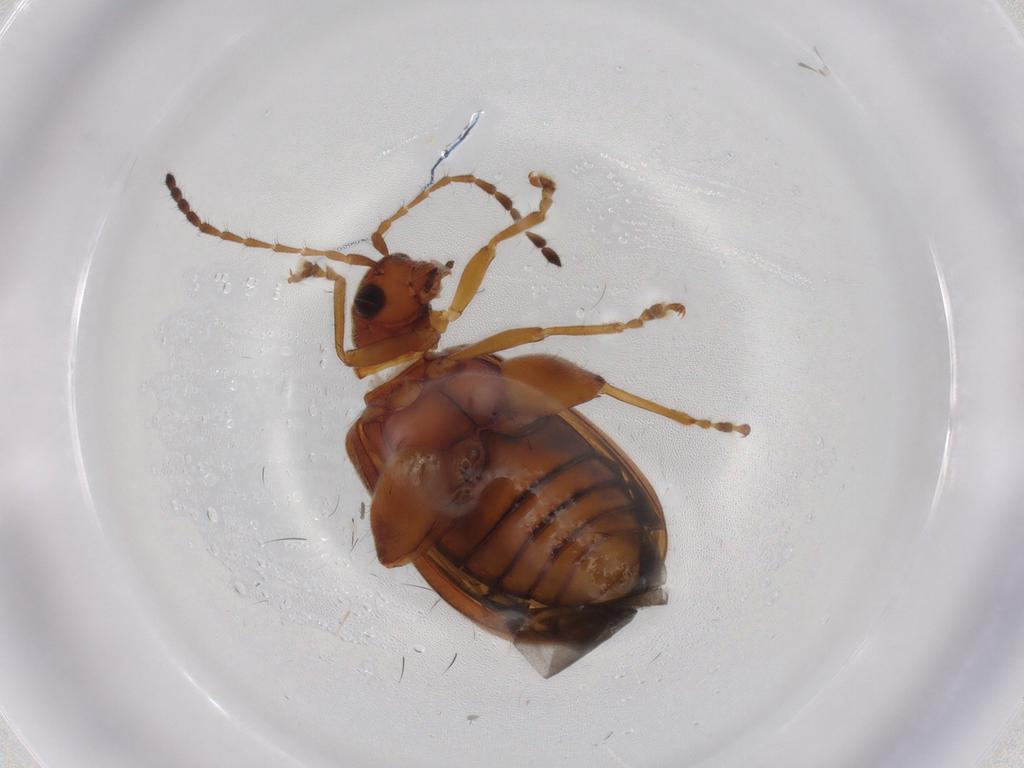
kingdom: Animalia
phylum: Arthropoda
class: Insecta
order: Coleoptera
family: Chrysomelidae
